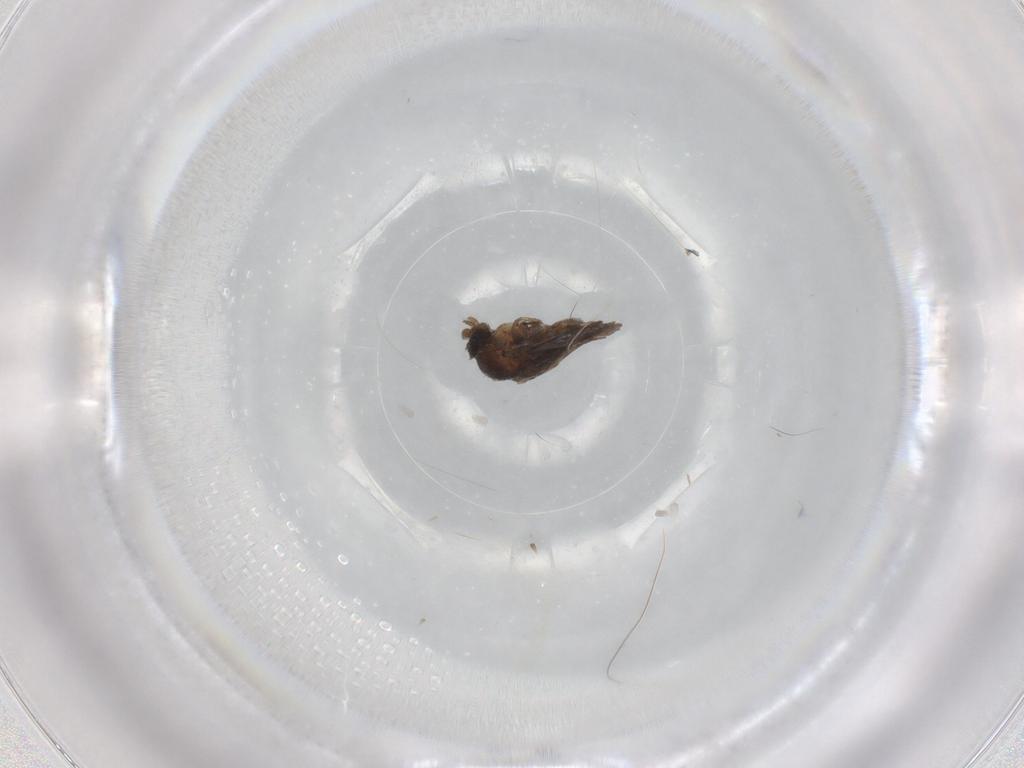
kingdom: Animalia
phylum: Arthropoda
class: Insecta
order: Diptera
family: Phoridae
